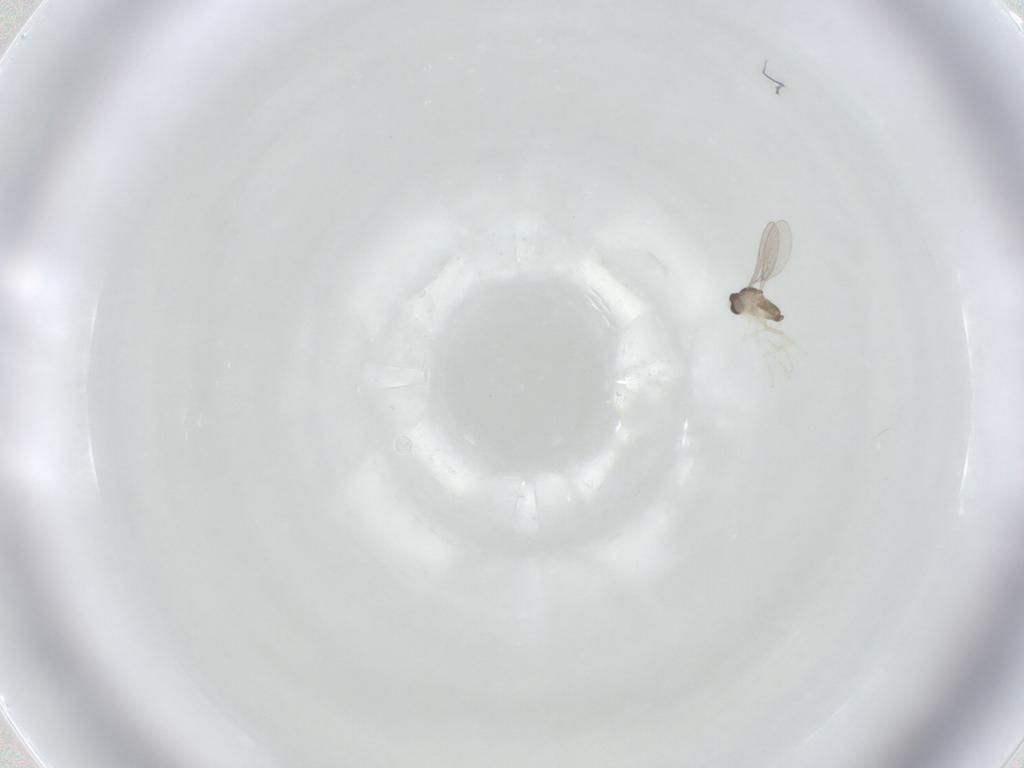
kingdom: Animalia
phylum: Arthropoda
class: Insecta
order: Diptera
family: Cecidomyiidae
